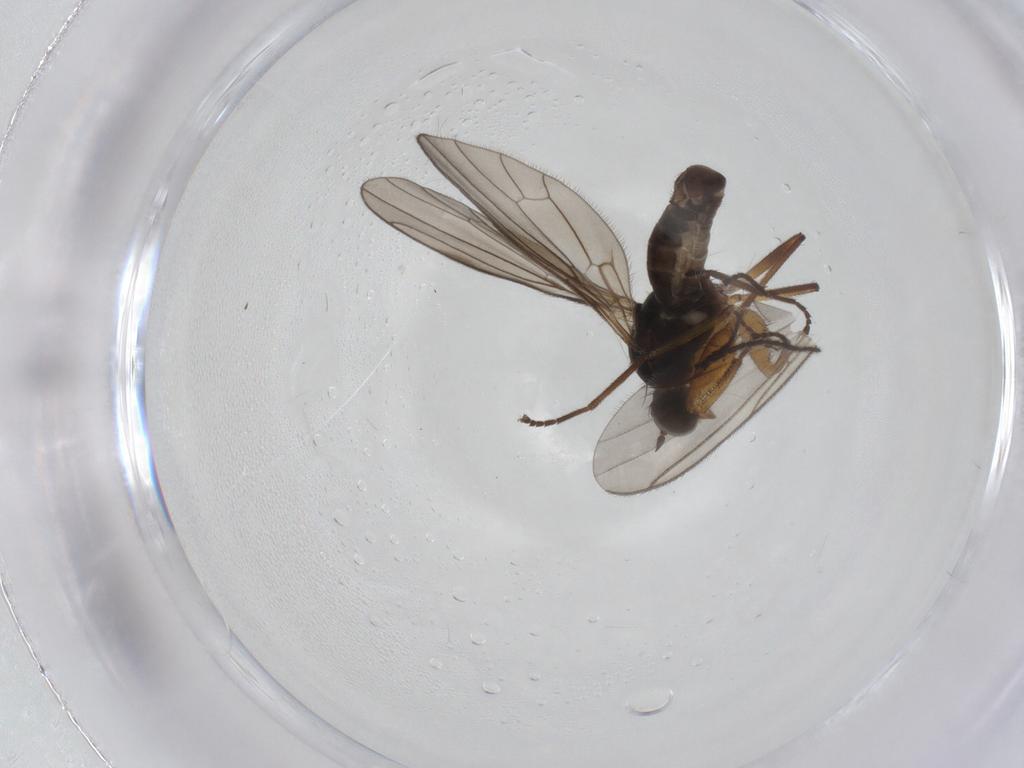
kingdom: Animalia
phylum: Arthropoda
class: Insecta
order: Diptera
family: Empididae
